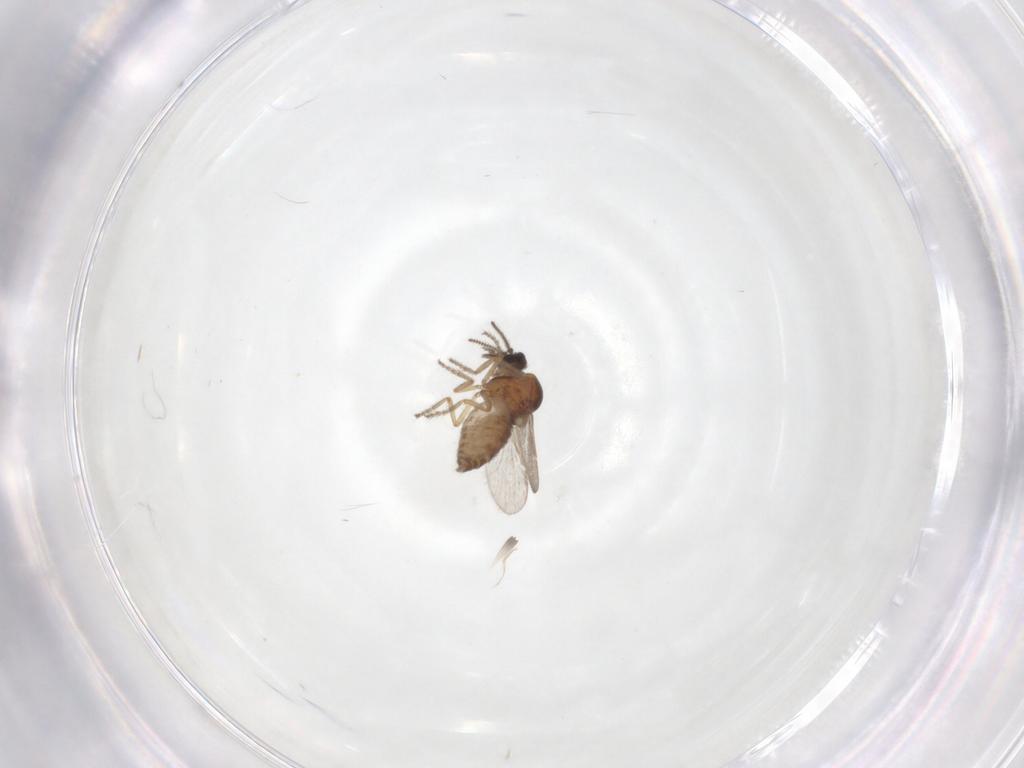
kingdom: Animalia
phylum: Arthropoda
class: Insecta
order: Diptera
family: Ceratopogonidae
